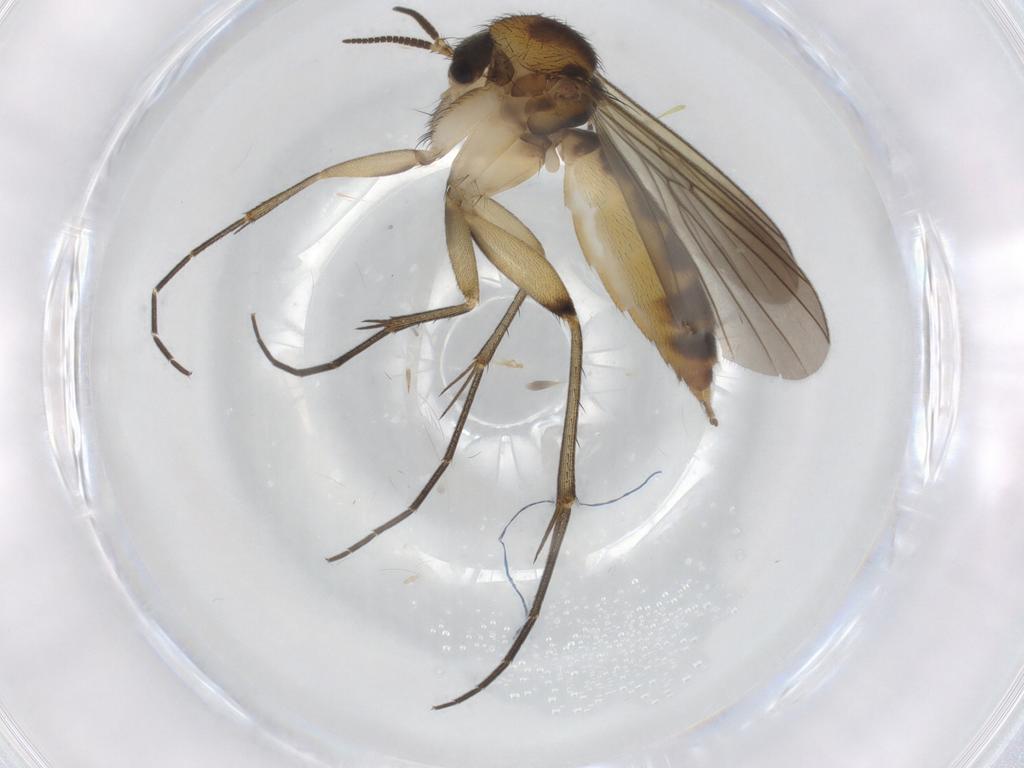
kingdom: Animalia
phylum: Arthropoda
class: Insecta
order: Diptera
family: Mycetophilidae
